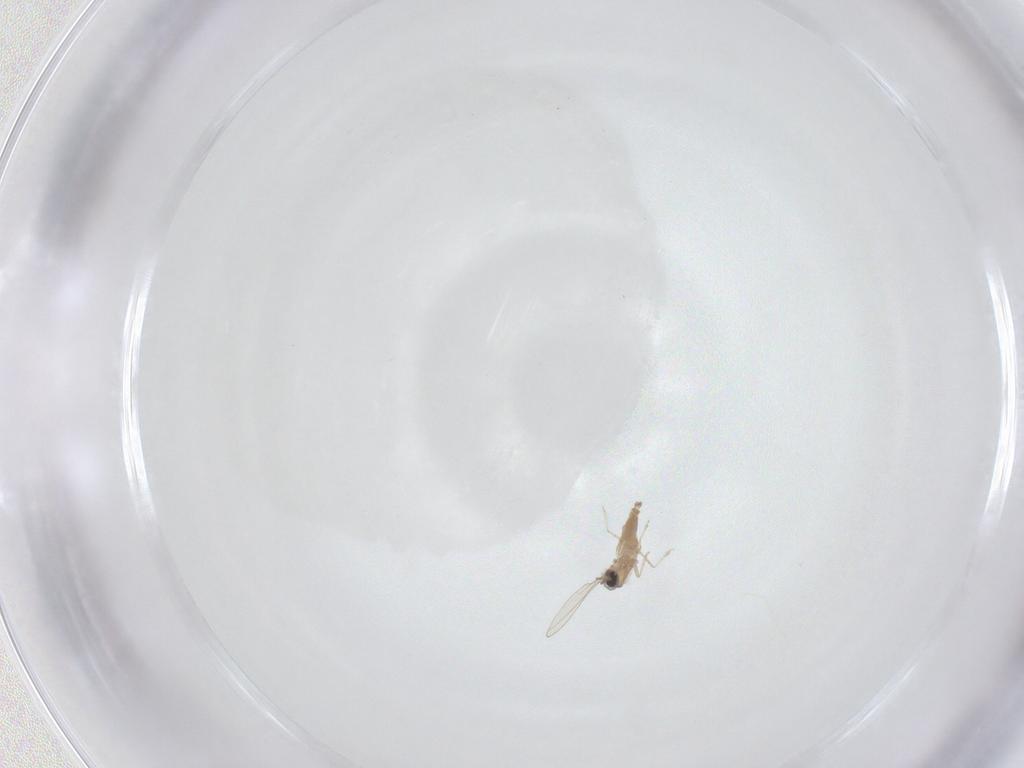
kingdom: Animalia
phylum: Arthropoda
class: Insecta
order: Diptera
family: Cecidomyiidae
